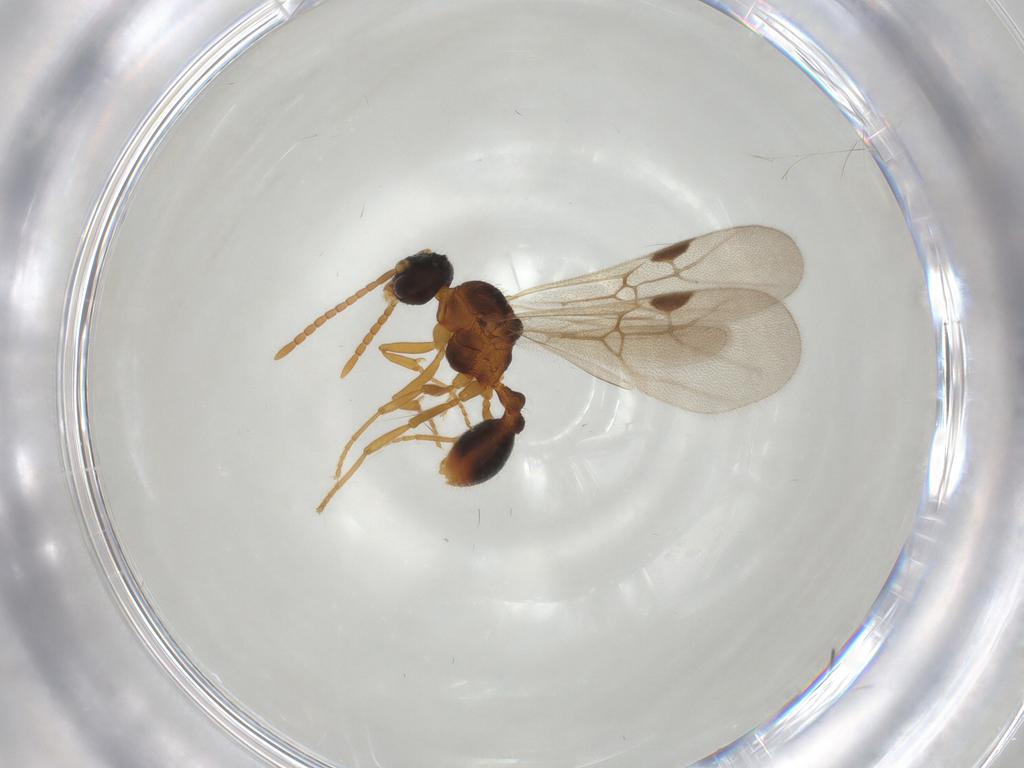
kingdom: Animalia
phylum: Arthropoda
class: Insecta
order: Hymenoptera
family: Formicidae
